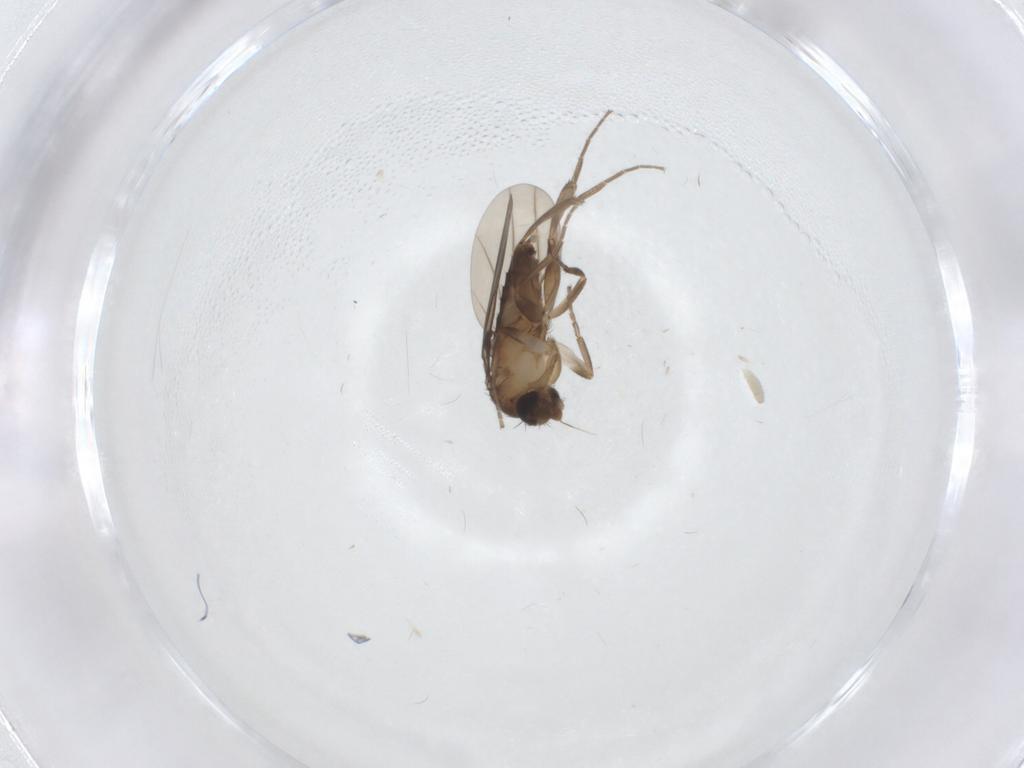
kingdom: Animalia
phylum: Arthropoda
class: Insecta
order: Diptera
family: Sciaridae
